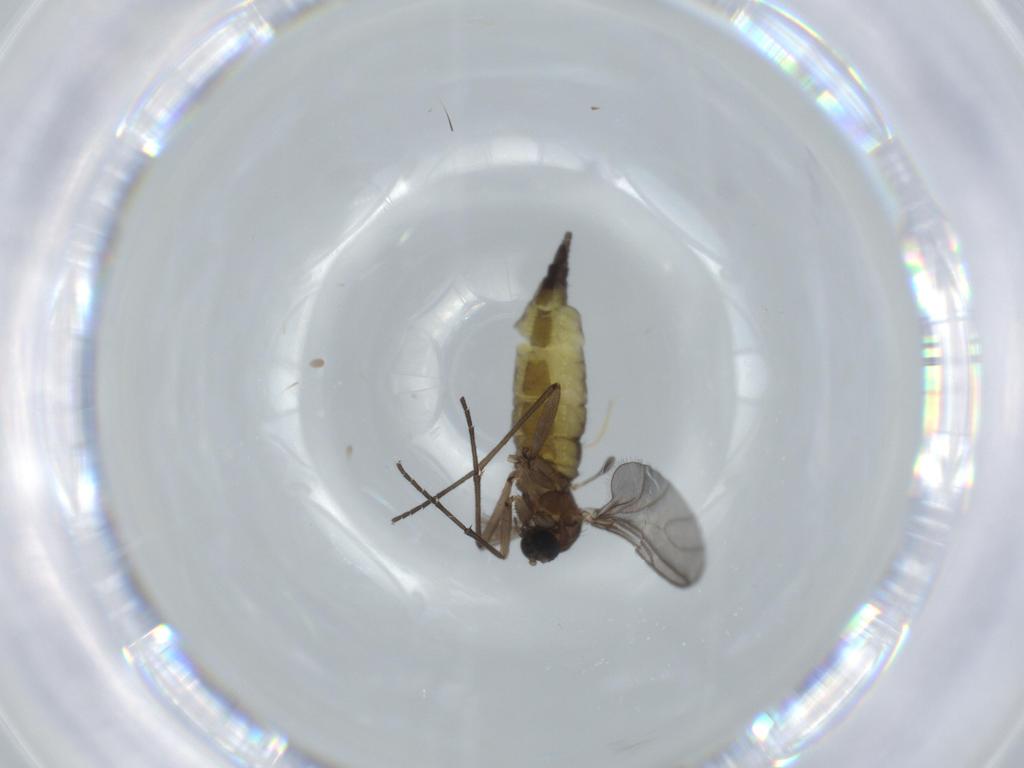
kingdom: Animalia
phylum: Arthropoda
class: Insecta
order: Diptera
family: Sciaridae
